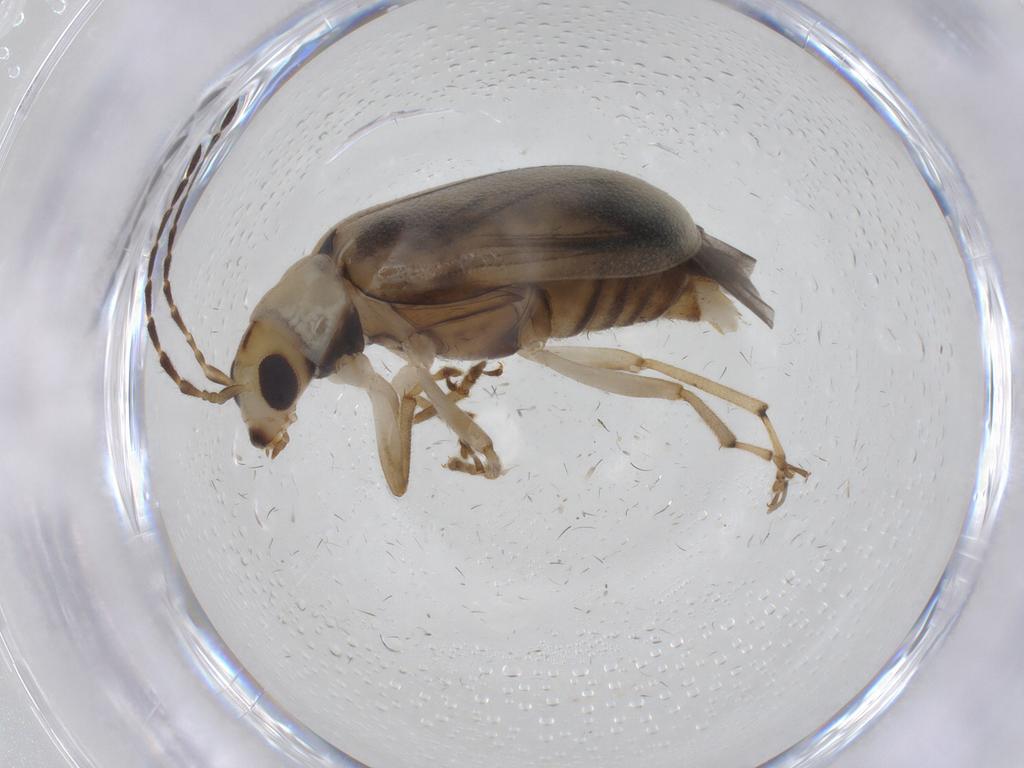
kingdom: Animalia
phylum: Arthropoda
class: Insecta
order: Coleoptera
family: Chrysomelidae
